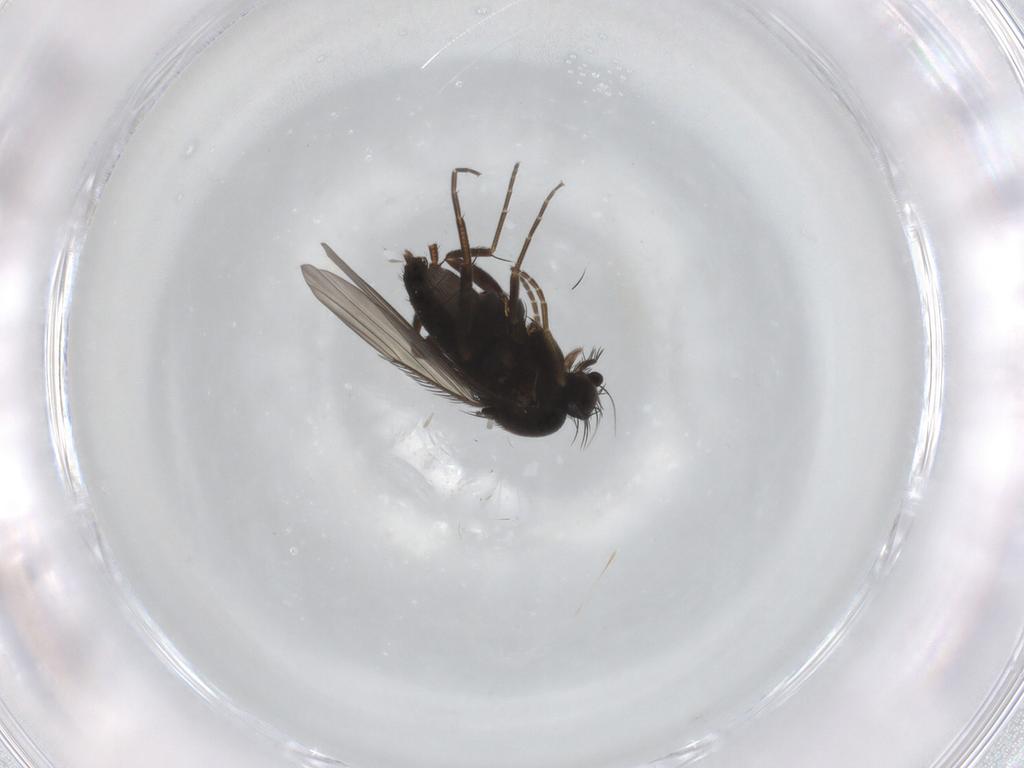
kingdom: Animalia
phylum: Arthropoda
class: Insecta
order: Diptera
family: Phoridae
